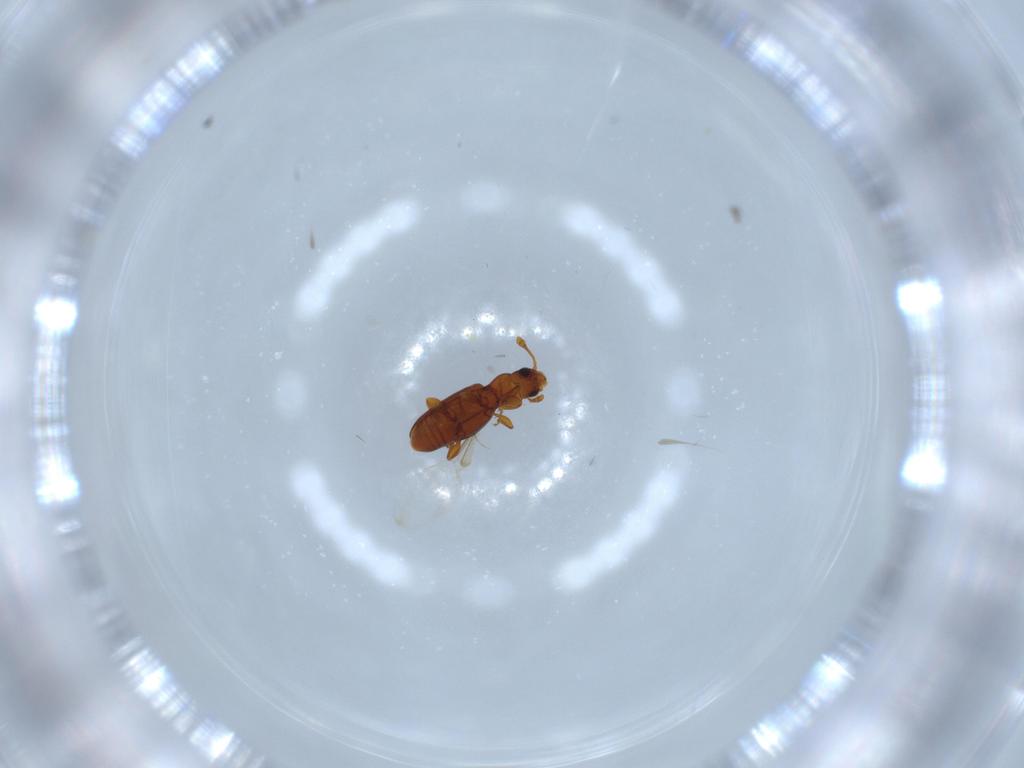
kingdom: Animalia
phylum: Arthropoda
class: Insecta
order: Coleoptera
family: Endomychidae
